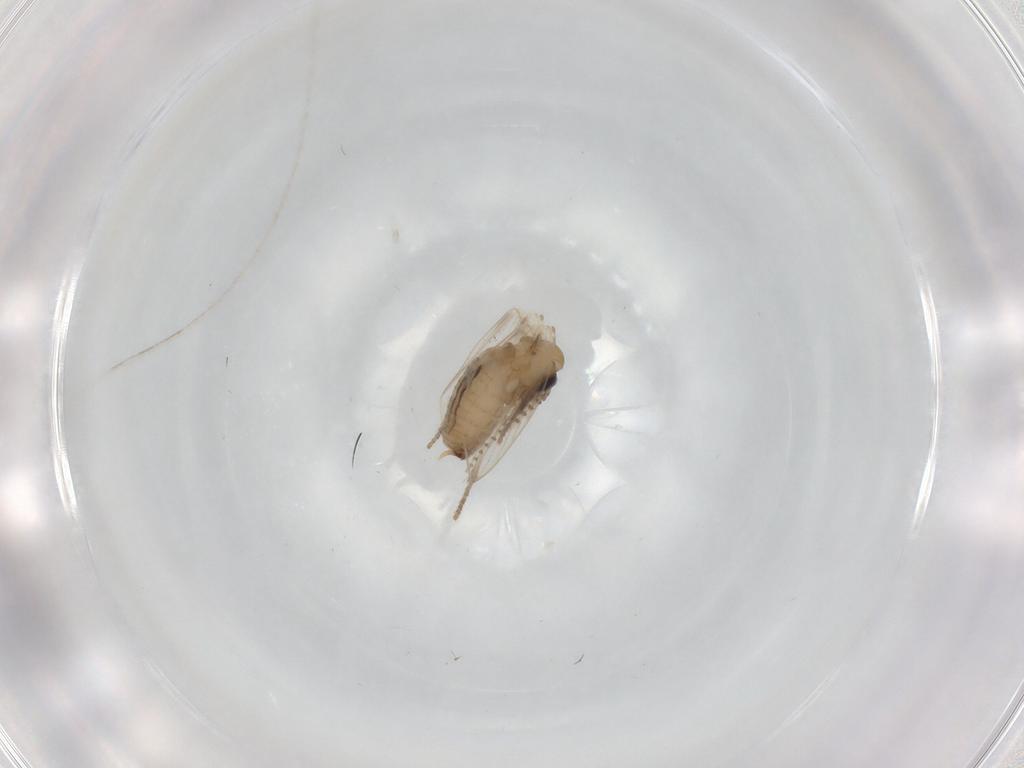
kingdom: Animalia
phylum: Arthropoda
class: Insecta
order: Diptera
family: Psychodidae
